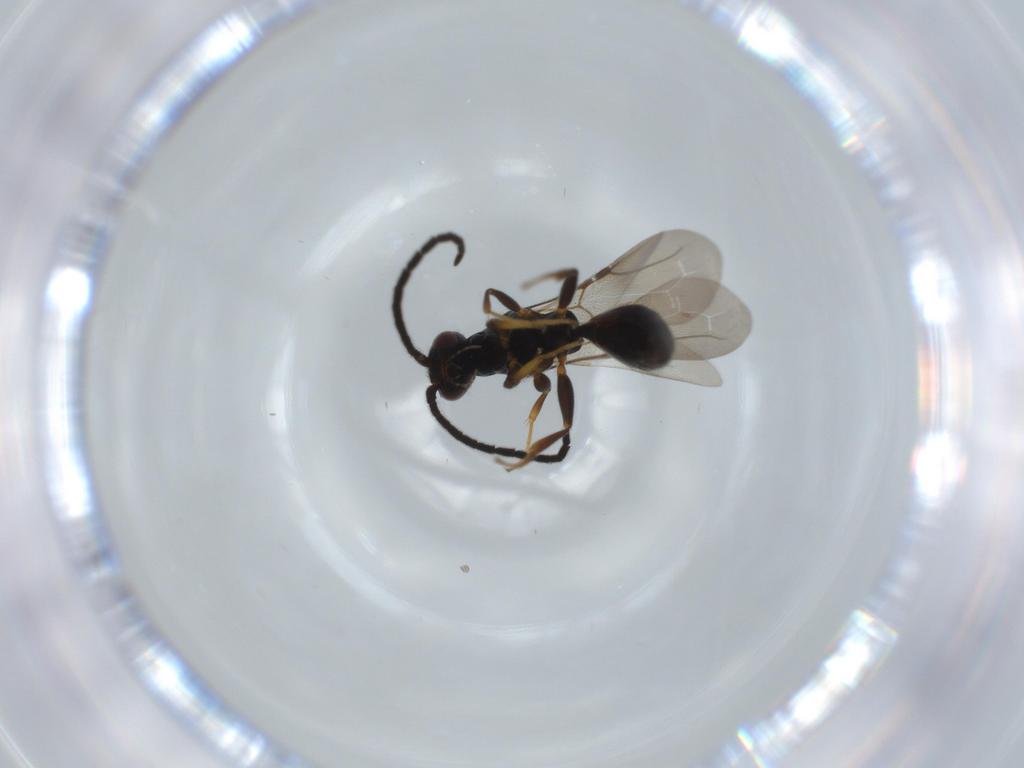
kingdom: Animalia
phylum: Arthropoda
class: Insecta
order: Hymenoptera
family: Bethylidae
